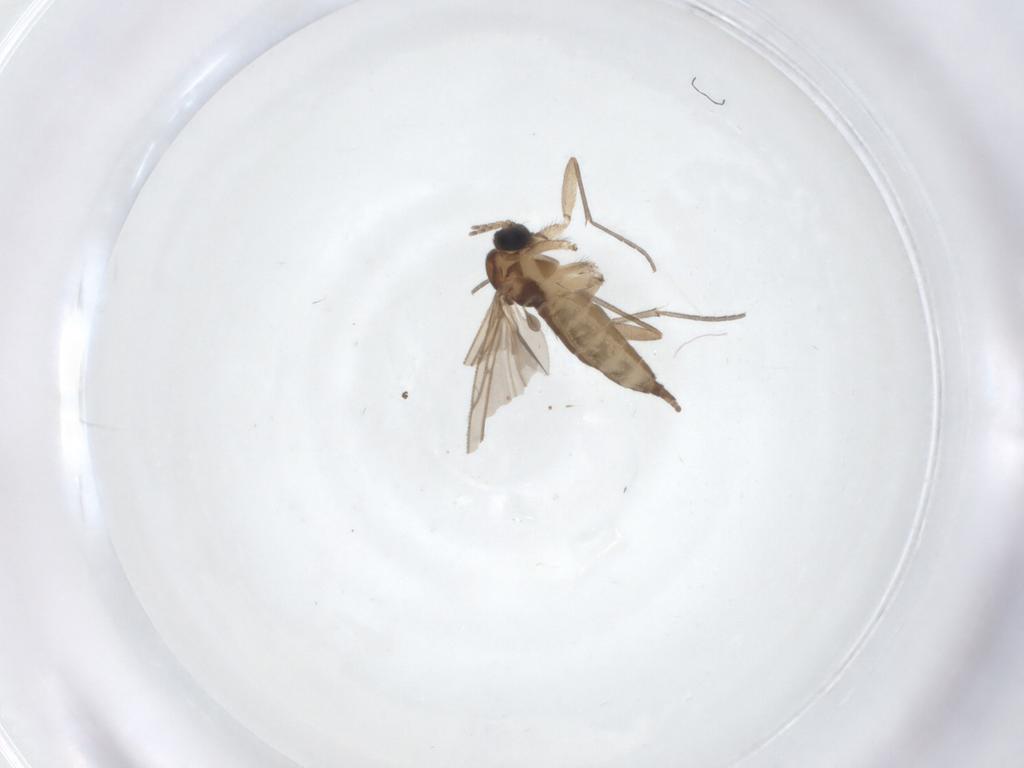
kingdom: Animalia
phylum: Arthropoda
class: Insecta
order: Diptera
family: Sciaridae
